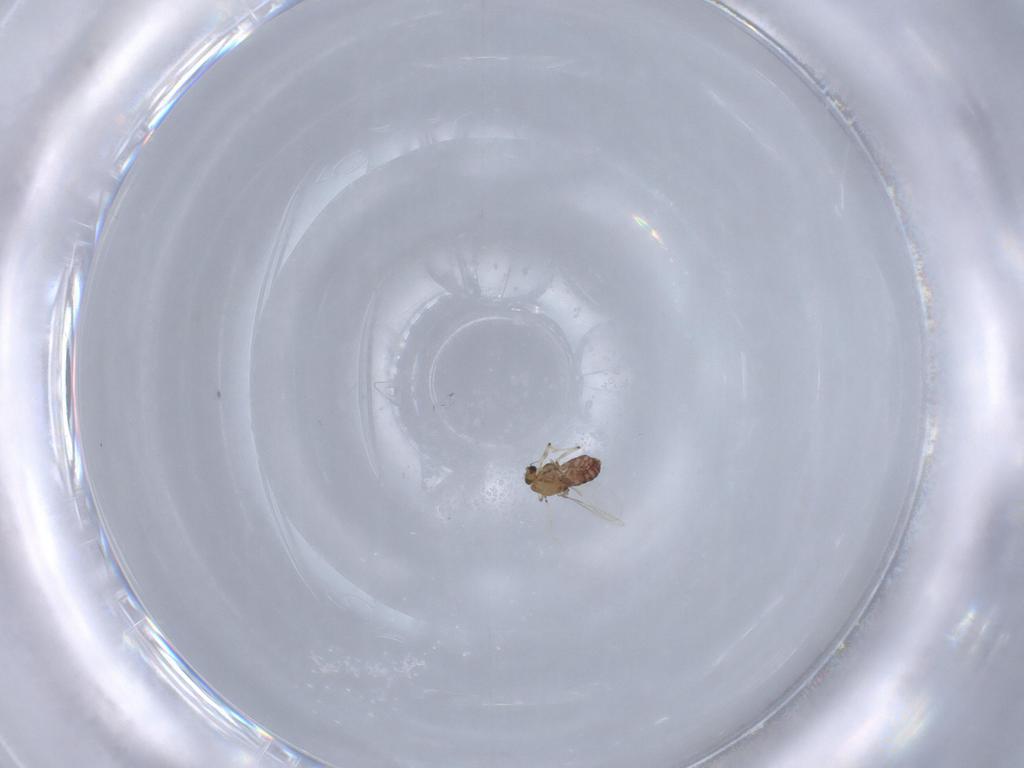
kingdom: Animalia
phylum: Arthropoda
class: Insecta
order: Diptera
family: Chironomidae
